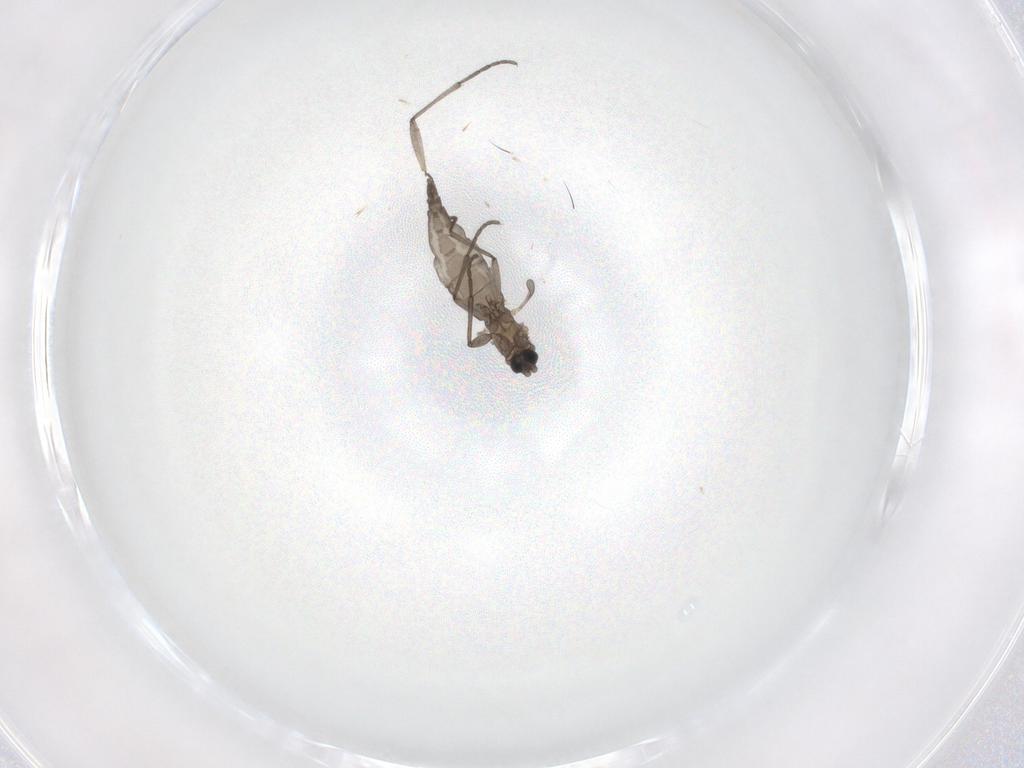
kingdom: Animalia
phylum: Arthropoda
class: Insecta
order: Diptera
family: Sciaridae
